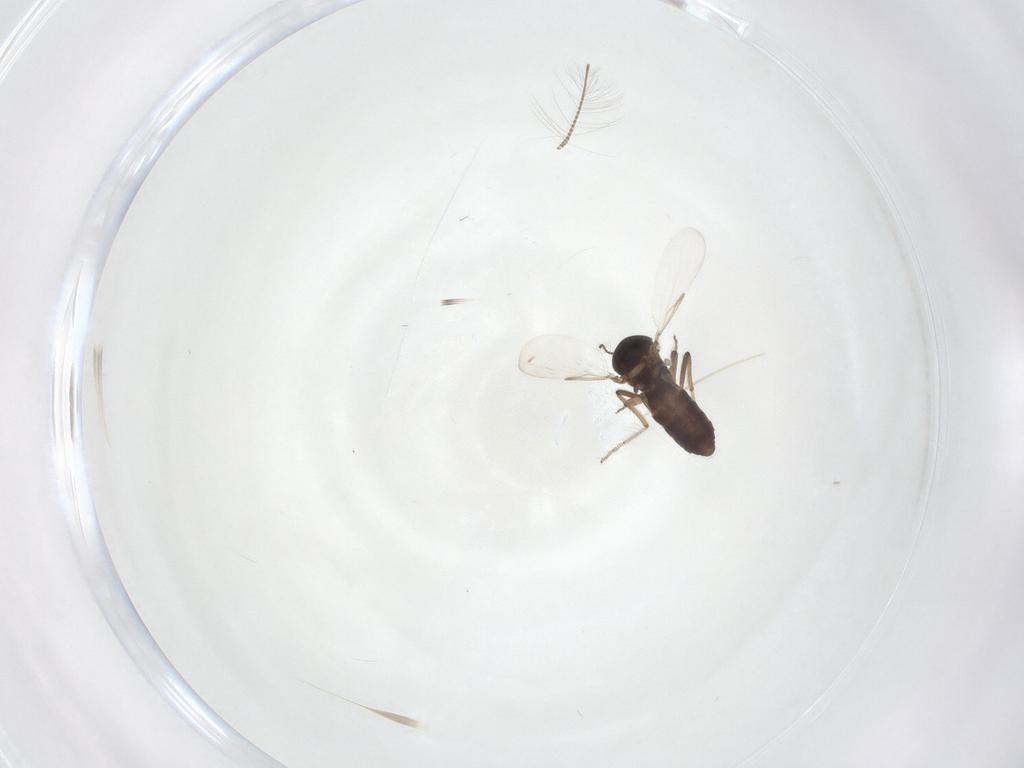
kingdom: Animalia
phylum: Arthropoda
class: Insecta
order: Diptera
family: Ceratopogonidae
